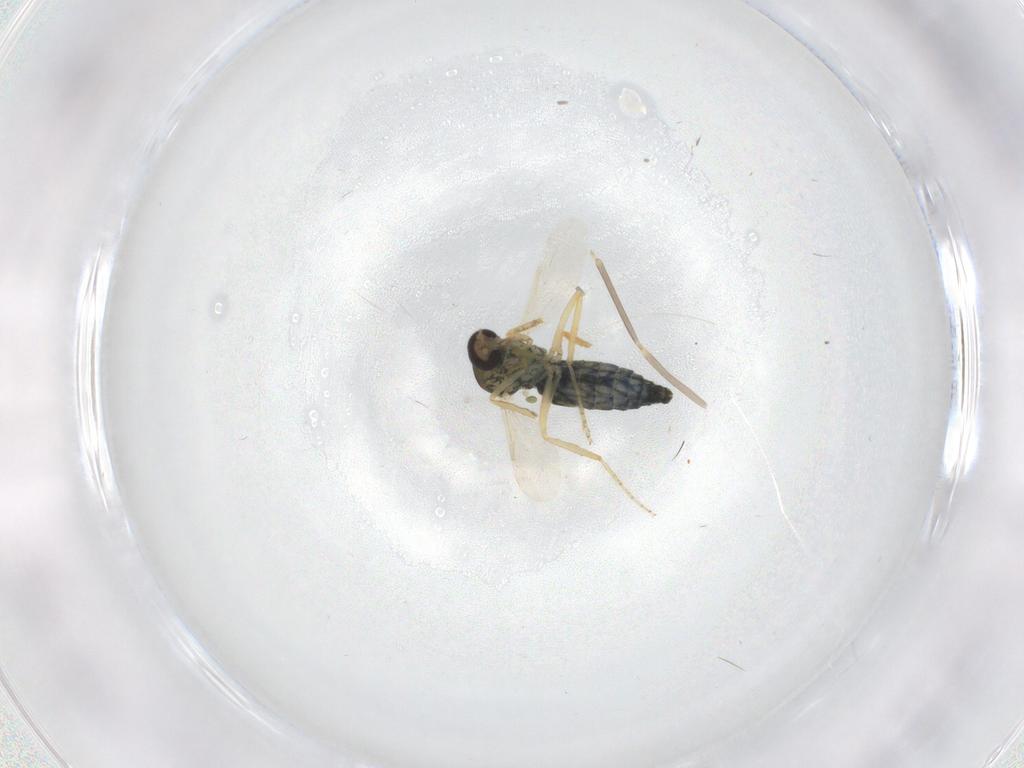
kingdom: Animalia
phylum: Arthropoda
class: Insecta
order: Diptera
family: Ceratopogonidae
